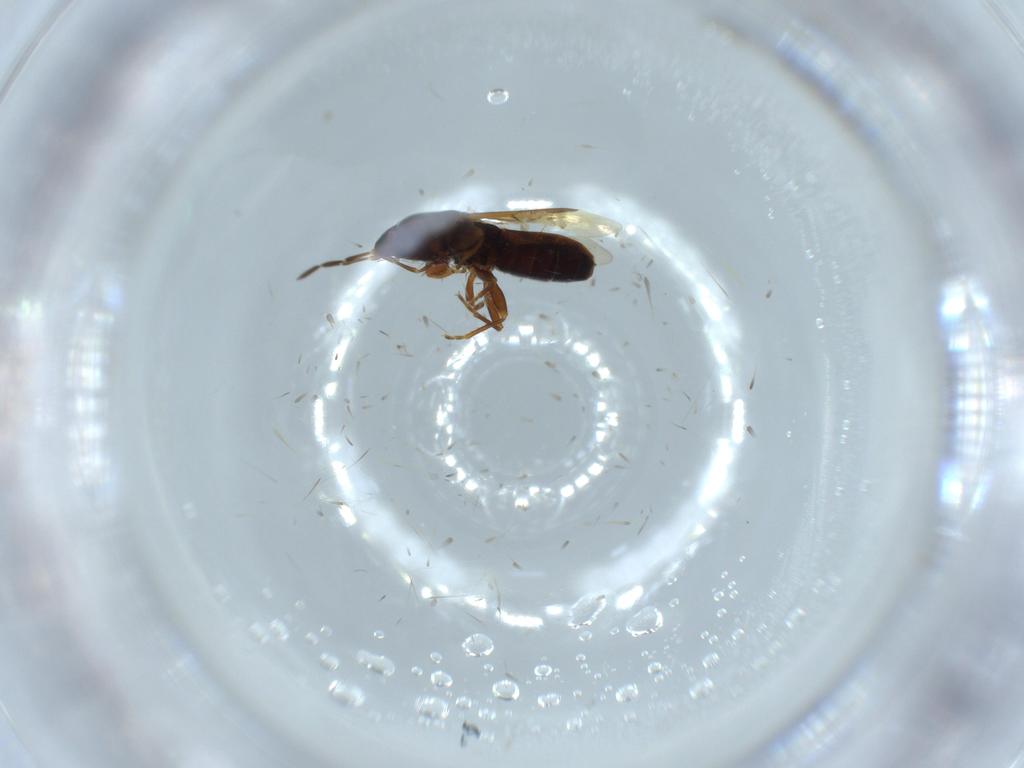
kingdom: Animalia
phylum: Arthropoda
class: Insecta
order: Hemiptera
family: Rhyparochromidae
